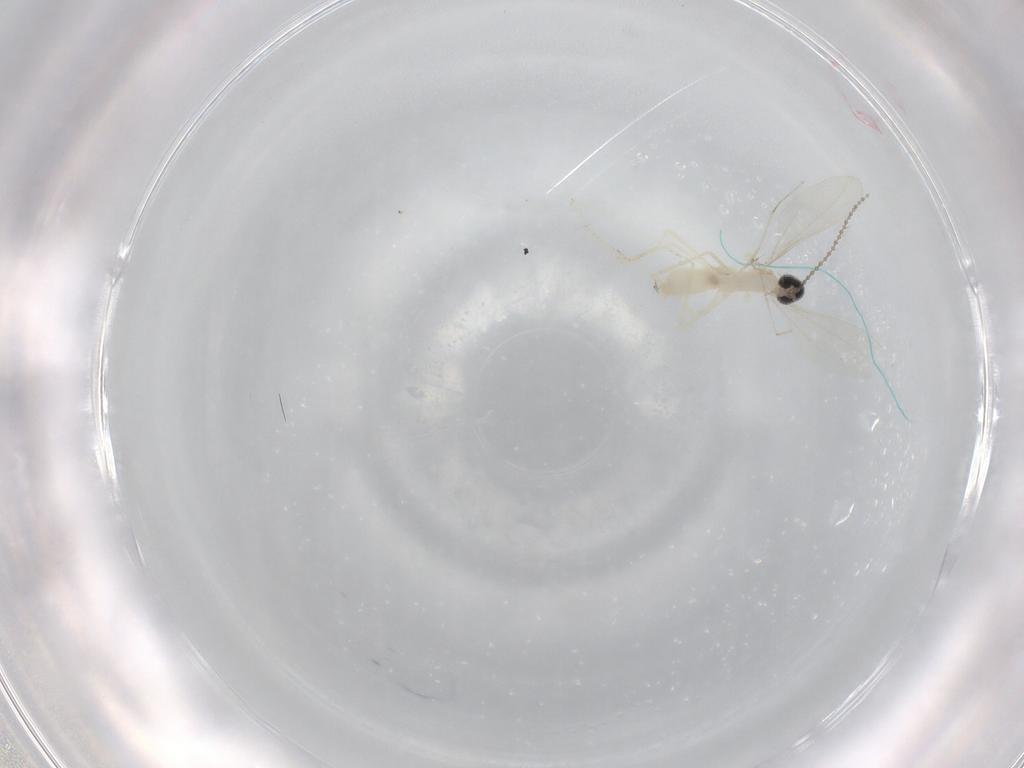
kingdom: Animalia
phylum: Arthropoda
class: Insecta
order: Diptera
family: Cecidomyiidae
